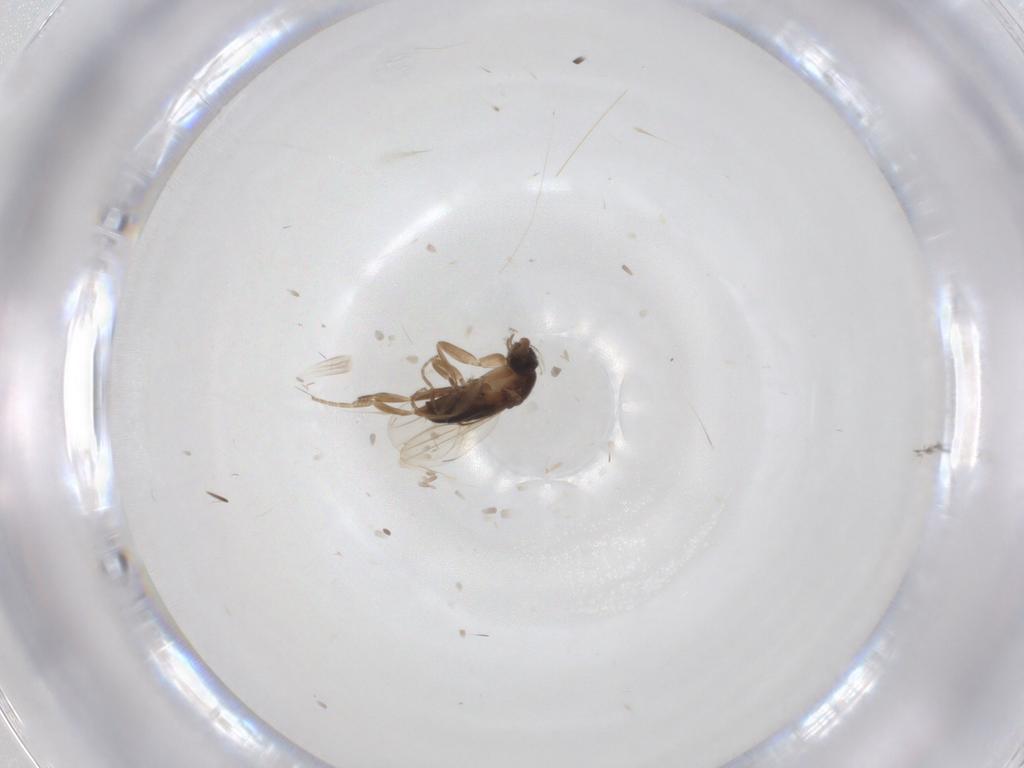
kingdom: Animalia
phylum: Arthropoda
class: Insecta
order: Diptera
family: Phoridae
